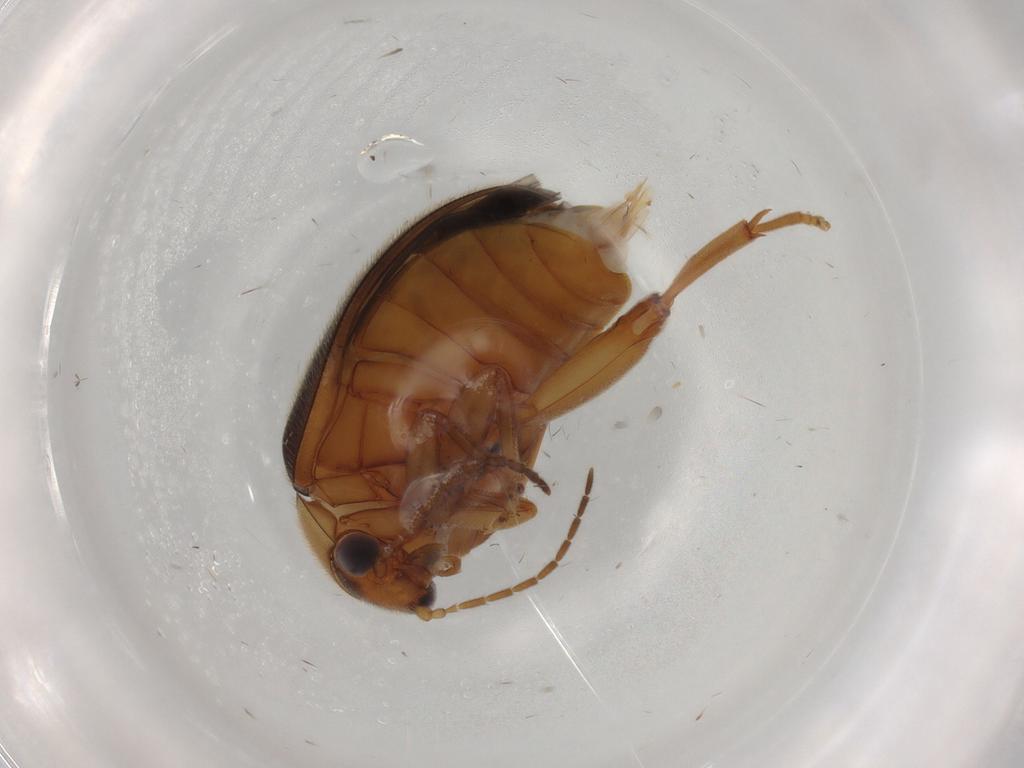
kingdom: Animalia
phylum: Arthropoda
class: Insecta
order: Coleoptera
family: Scirtidae
